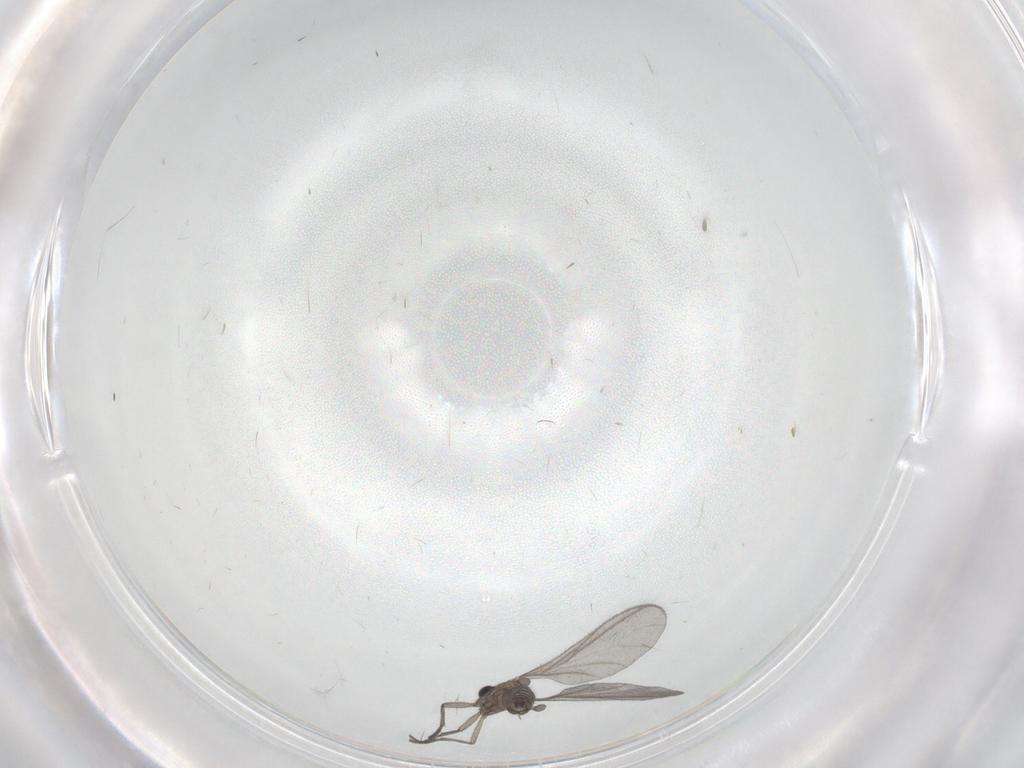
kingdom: Animalia
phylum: Arthropoda
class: Insecta
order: Diptera
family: Sciaridae
